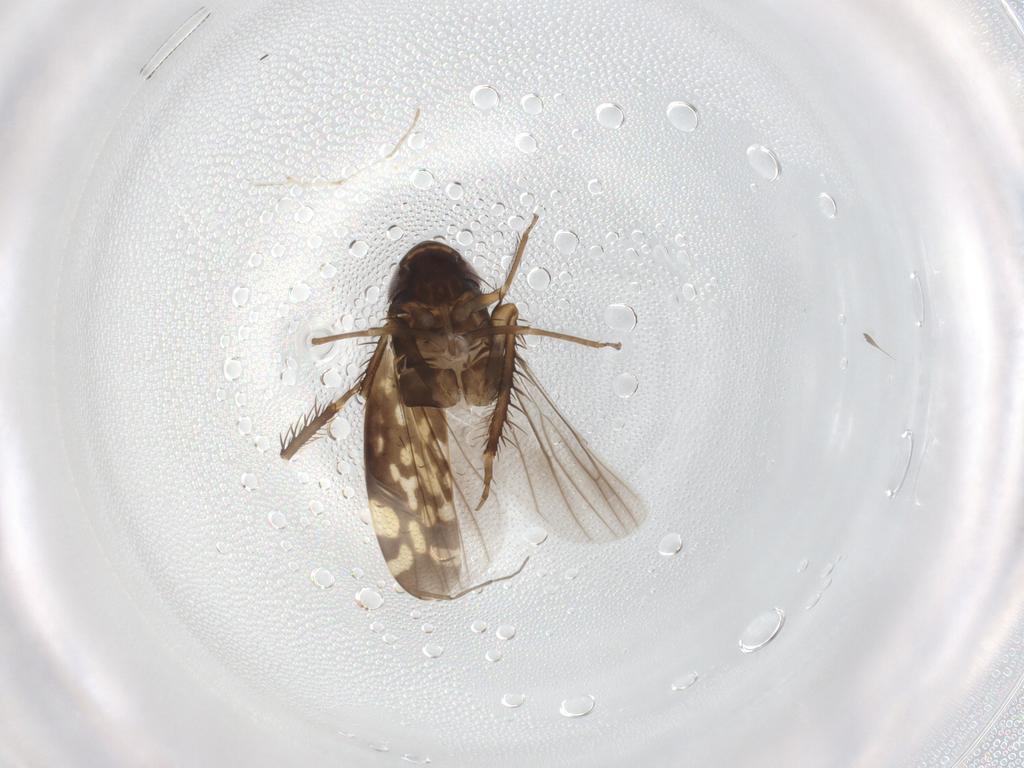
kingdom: Animalia
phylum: Arthropoda
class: Insecta
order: Hemiptera
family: Cicadellidae
